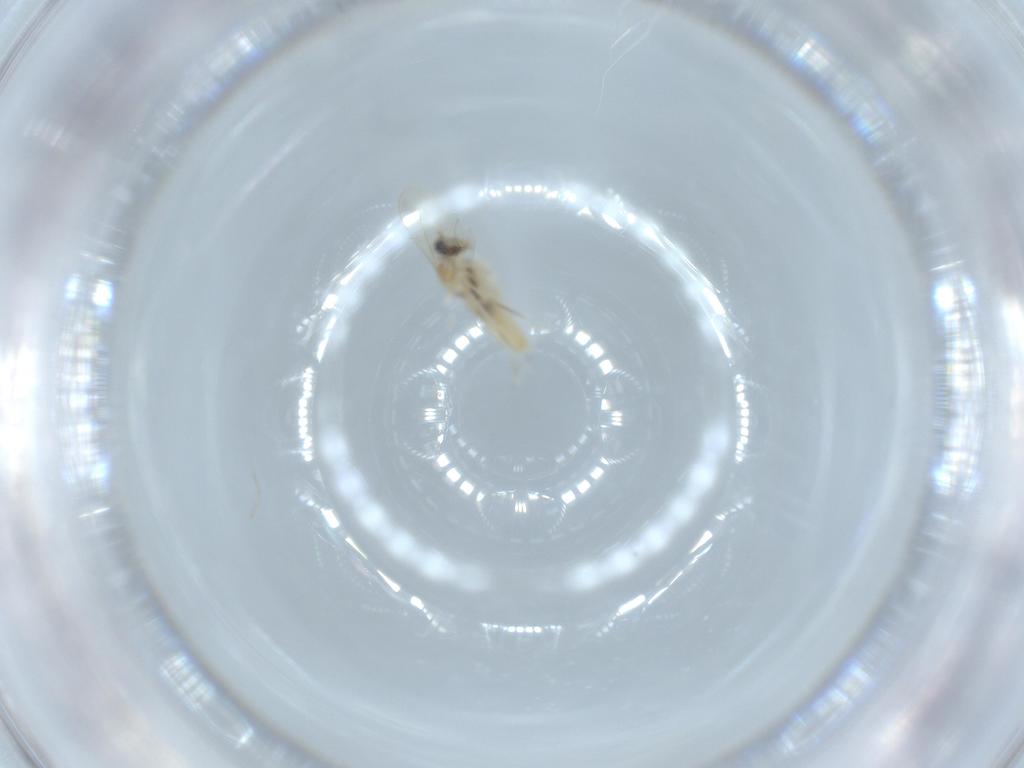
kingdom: Animalia
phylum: Arthropoda
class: Insecta
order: Diptera
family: Cecidomyiidae
